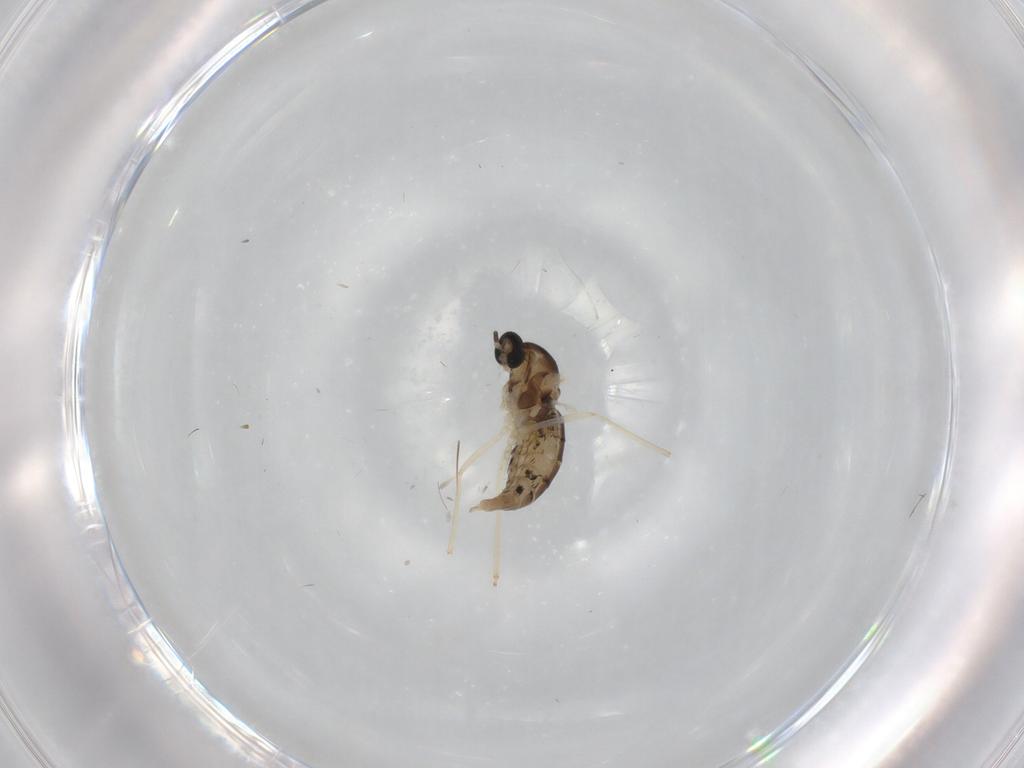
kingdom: Animalia
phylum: Arthropoda
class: Insecta
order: Diptera
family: Cecidomyiidae
